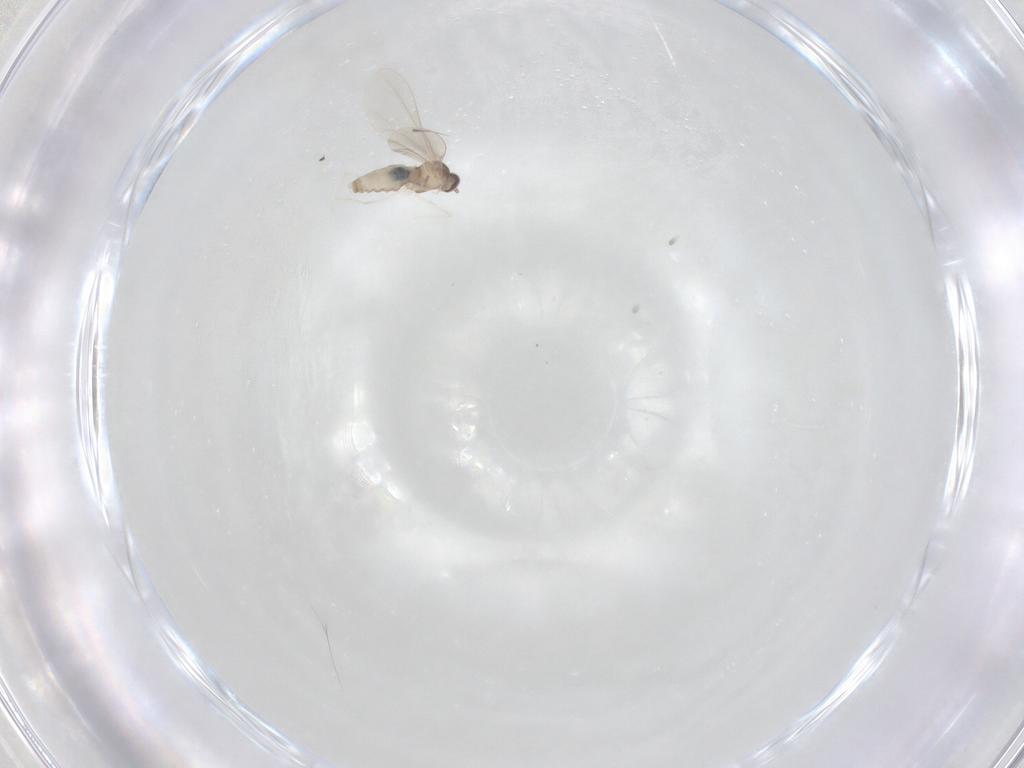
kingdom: Animalia
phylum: Arthropoda
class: Insecta
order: Diptera
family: Cecidomyiidae
